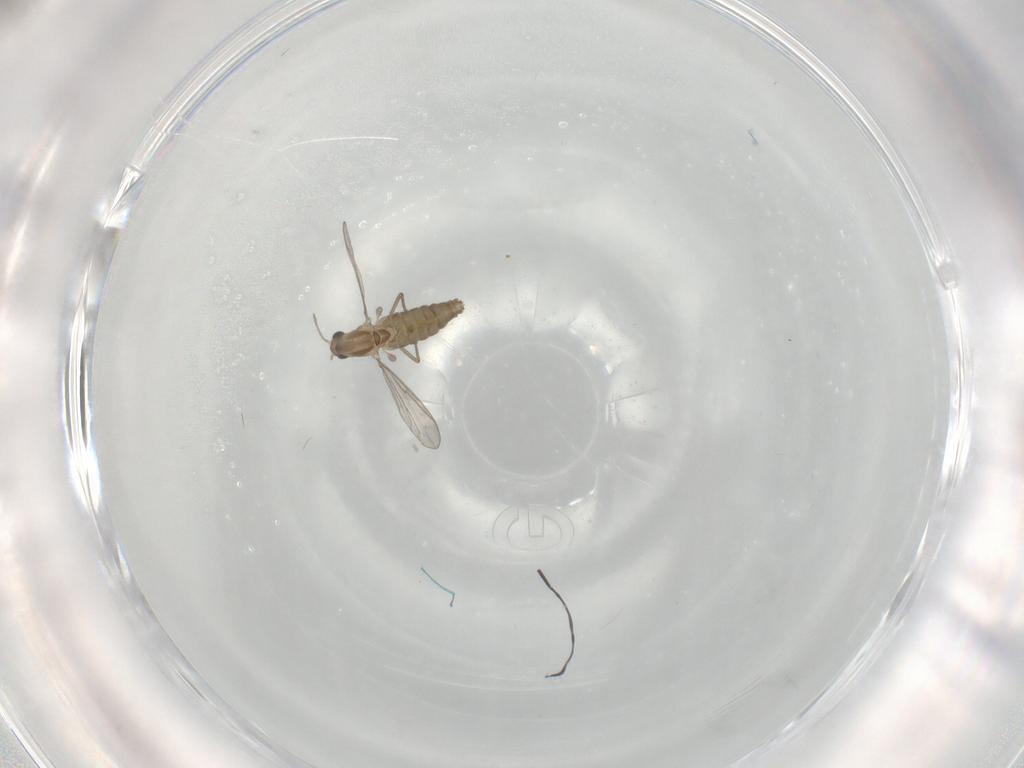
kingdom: Animalia
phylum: Arthropoda
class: Insecta
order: Diptera
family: Chironomidae
